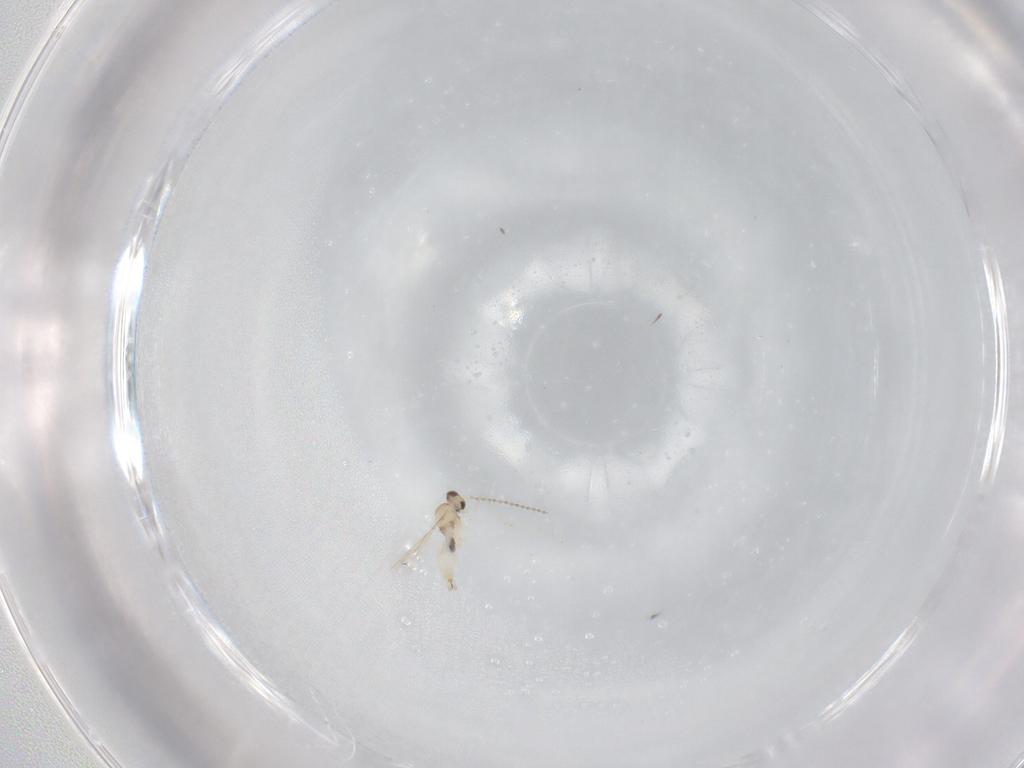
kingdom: Animalia
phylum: Arthropoda
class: Insecta
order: Diptera
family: Cecidomyiidae
